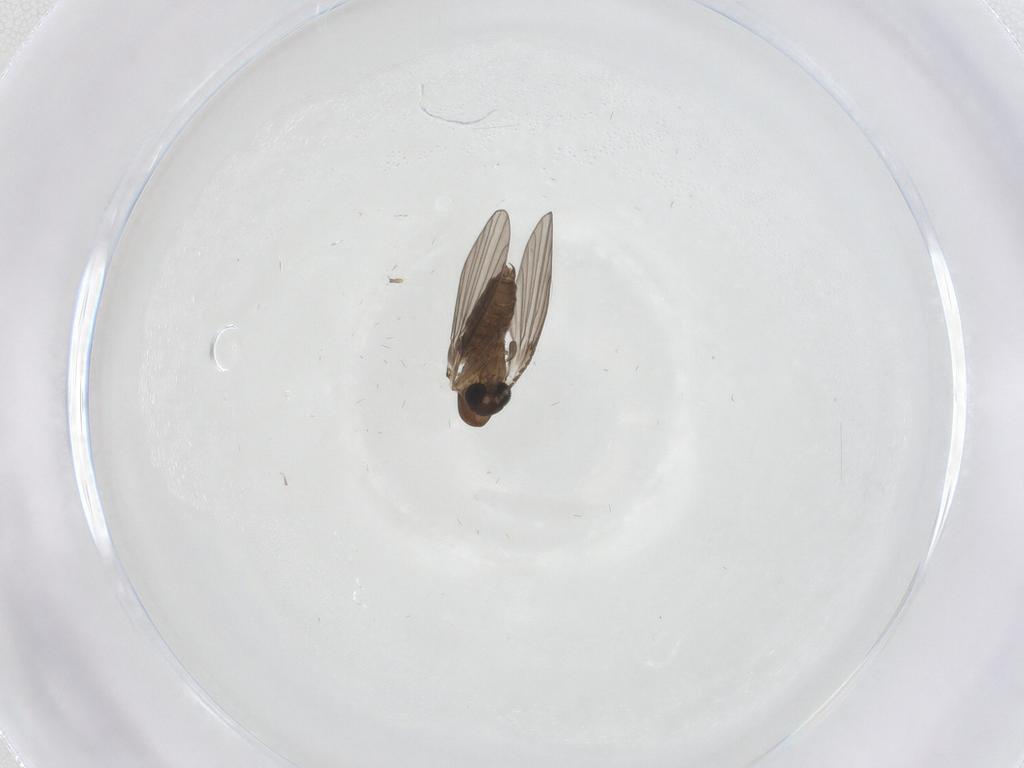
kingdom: Animalia
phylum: Arthropoda
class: Insecta
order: Diptera
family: Psychodidae
